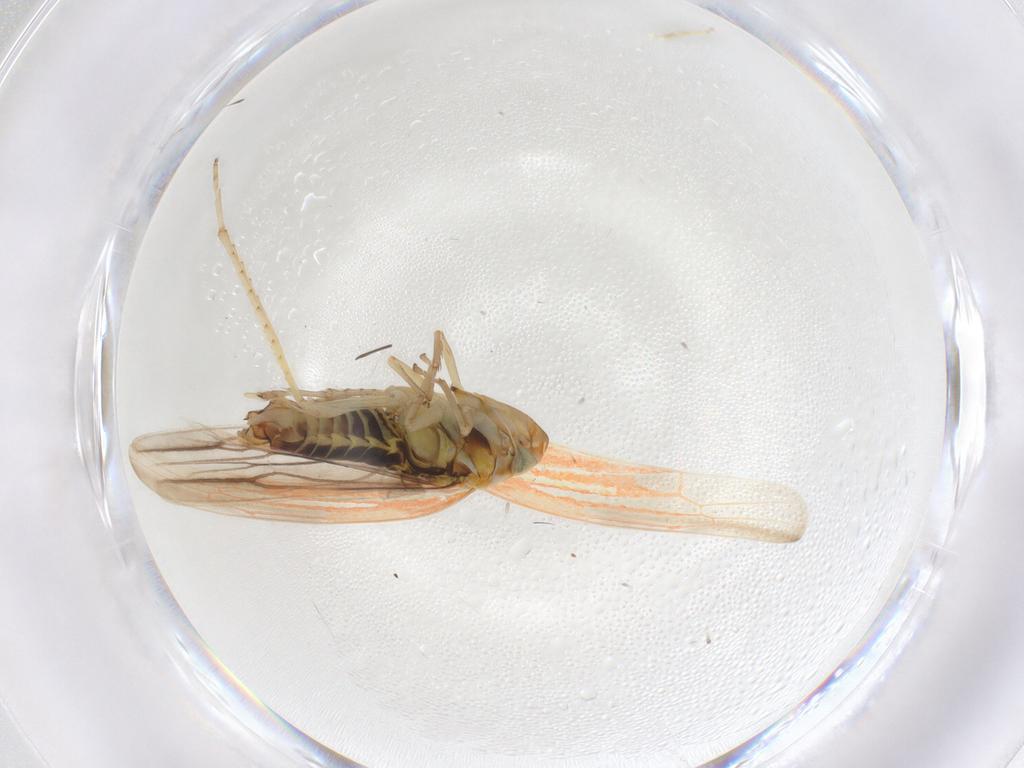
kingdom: Animalia
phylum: Arthropoda
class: Insecta
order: Hemiptera
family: Cicadellidae
